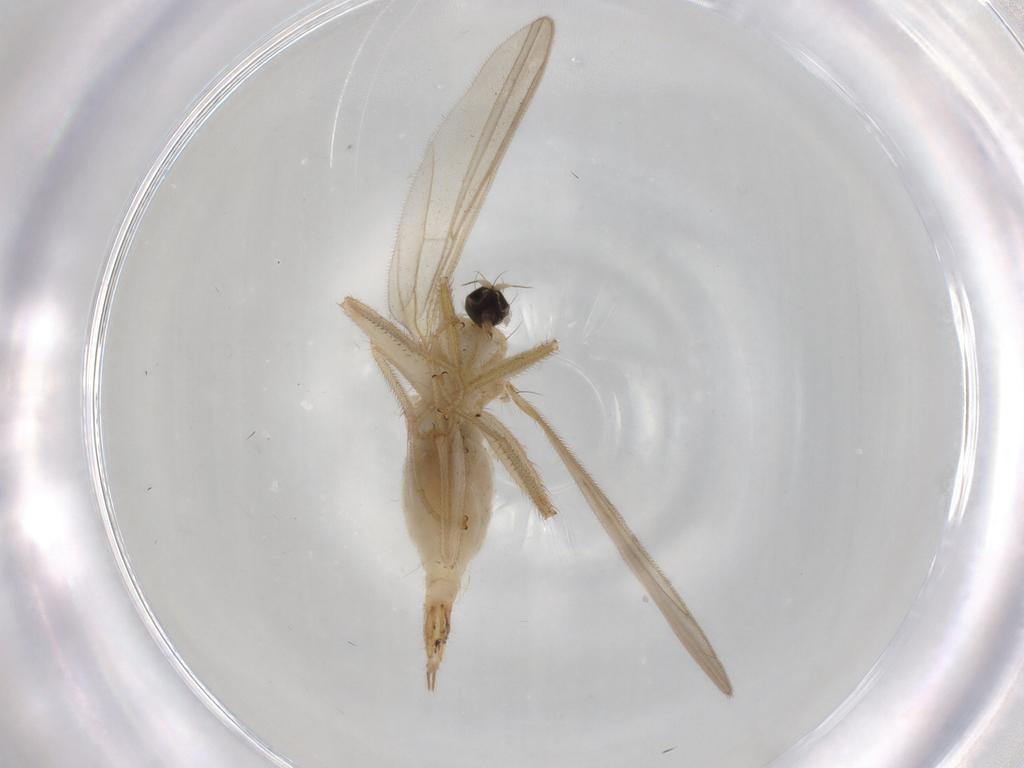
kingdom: Animalia
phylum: Arthropoda
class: Insecta
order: Diptera
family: Hybotidae
